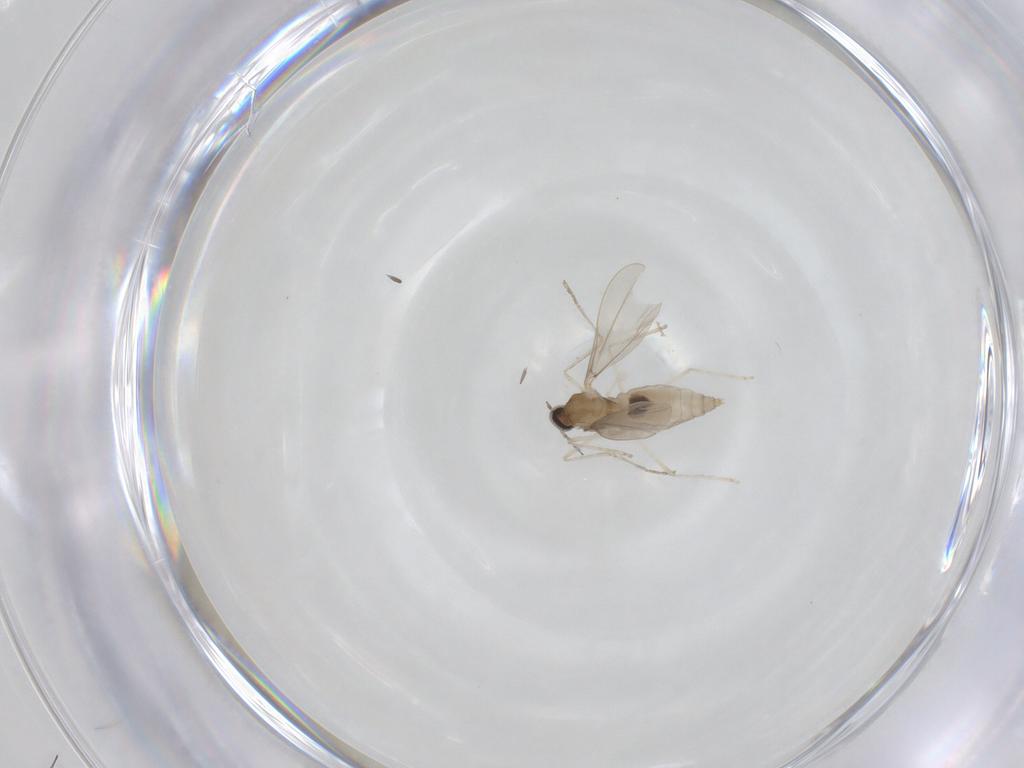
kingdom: Animalia
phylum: Arthropoda
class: Insecta
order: Diptera
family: Cecidomyiidae
